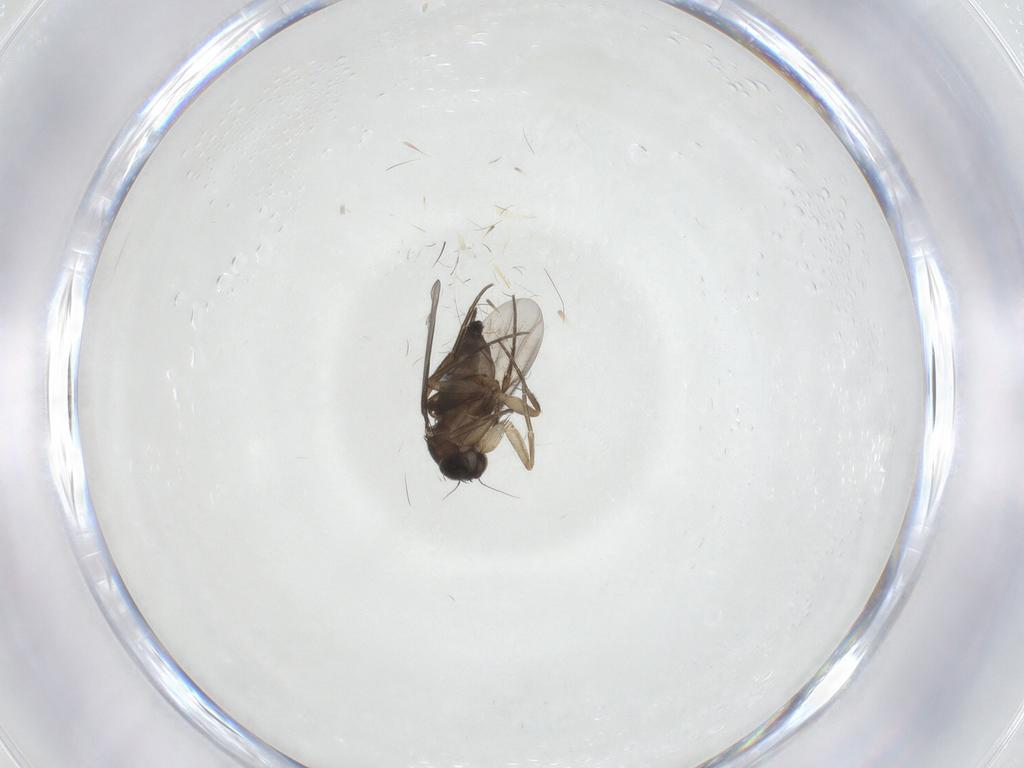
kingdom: Animalia
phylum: Arthropoda
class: Insecta
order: Diptera
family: Phoridae
